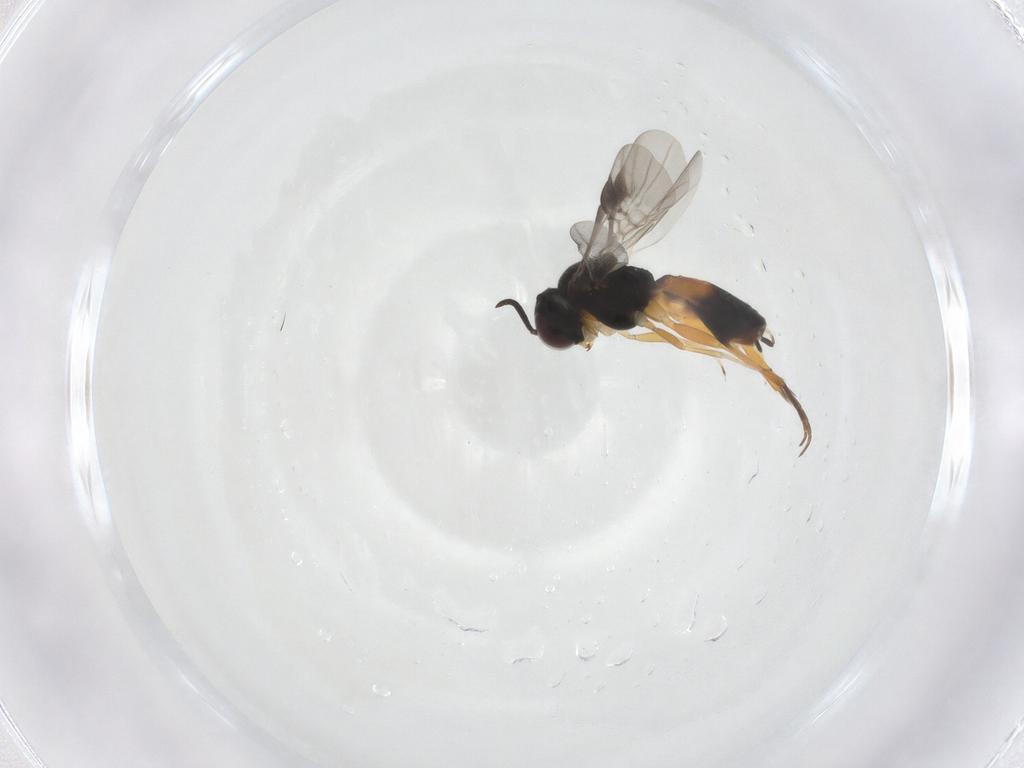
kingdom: Animalia
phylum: Arthropoda
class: Insecta
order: Hymenoptera
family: Braconidae
